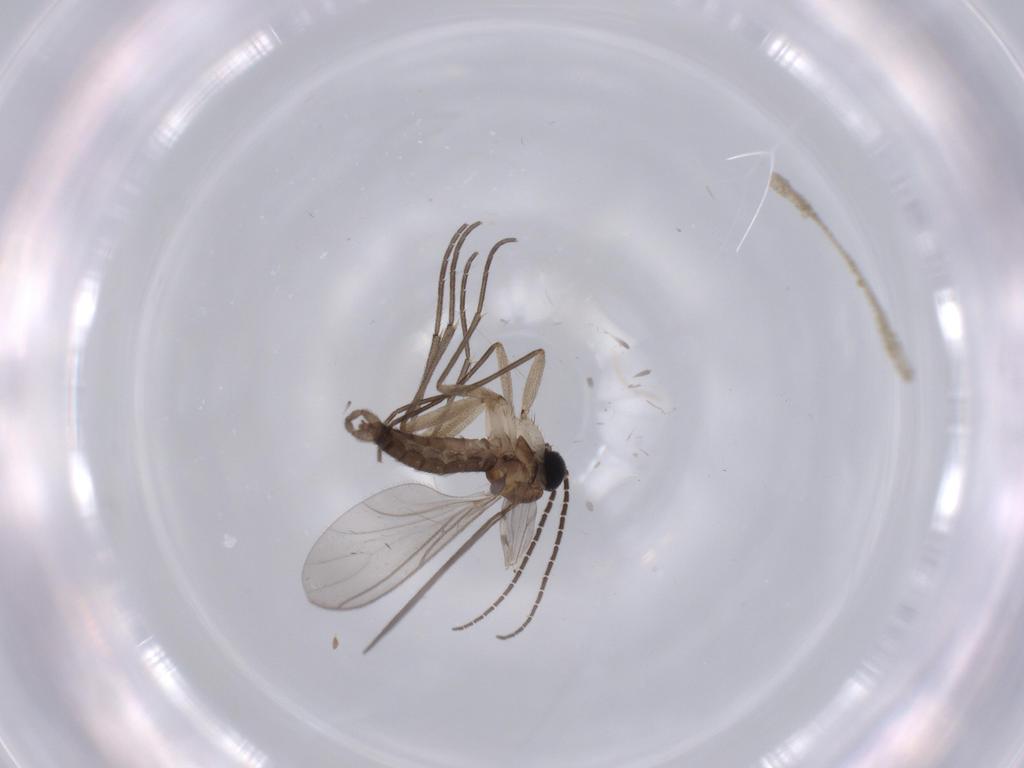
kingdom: Animalia
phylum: Arthropoda
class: Insecta
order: Diptera
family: Sciaridae
